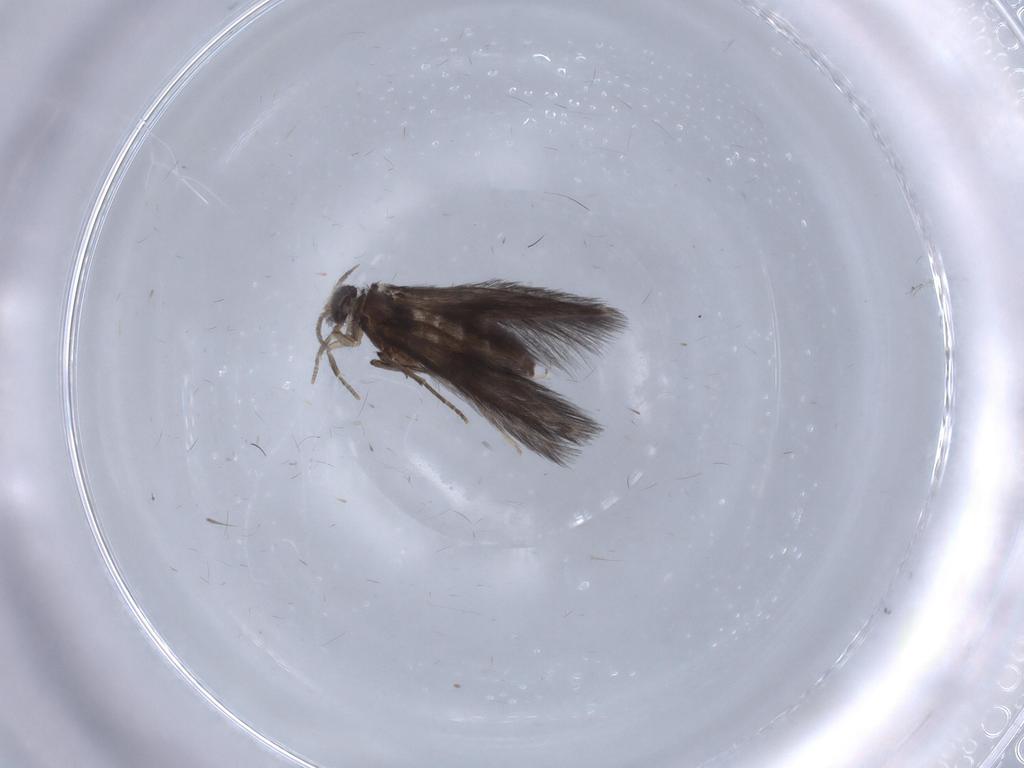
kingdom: Animalia
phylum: Arthropoda
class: Insecta
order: Trichoptera
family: Hydroptilidae
